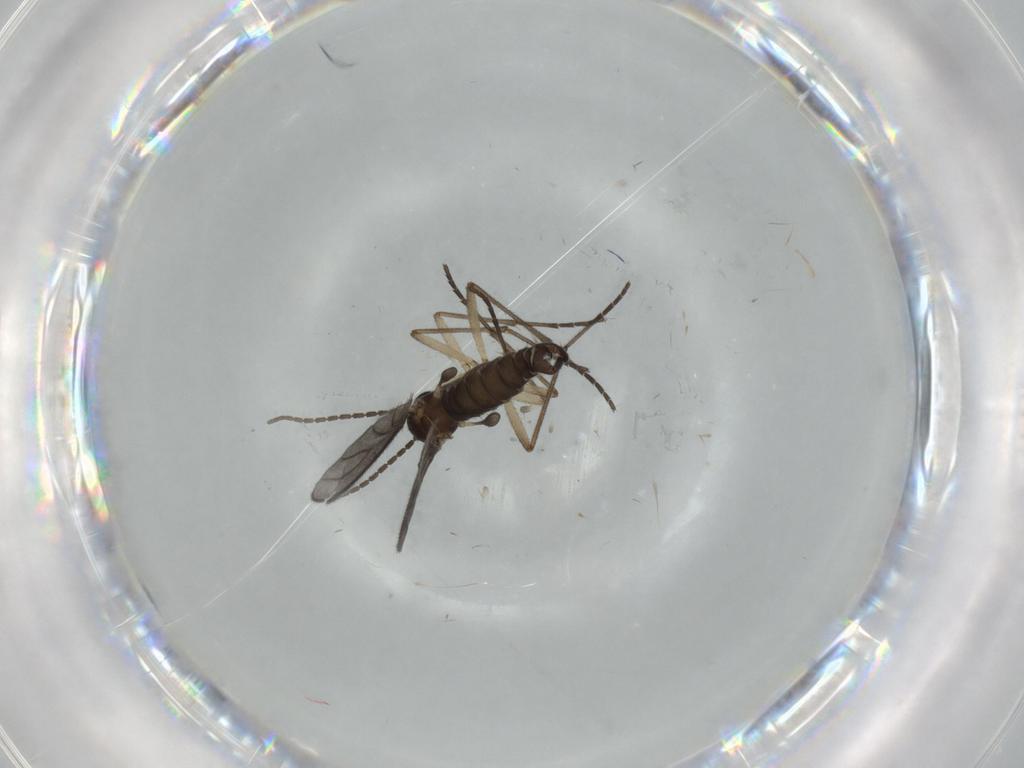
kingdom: Animalia
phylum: Arthropoda
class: Insecta
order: Diptera
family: Sciaridae
